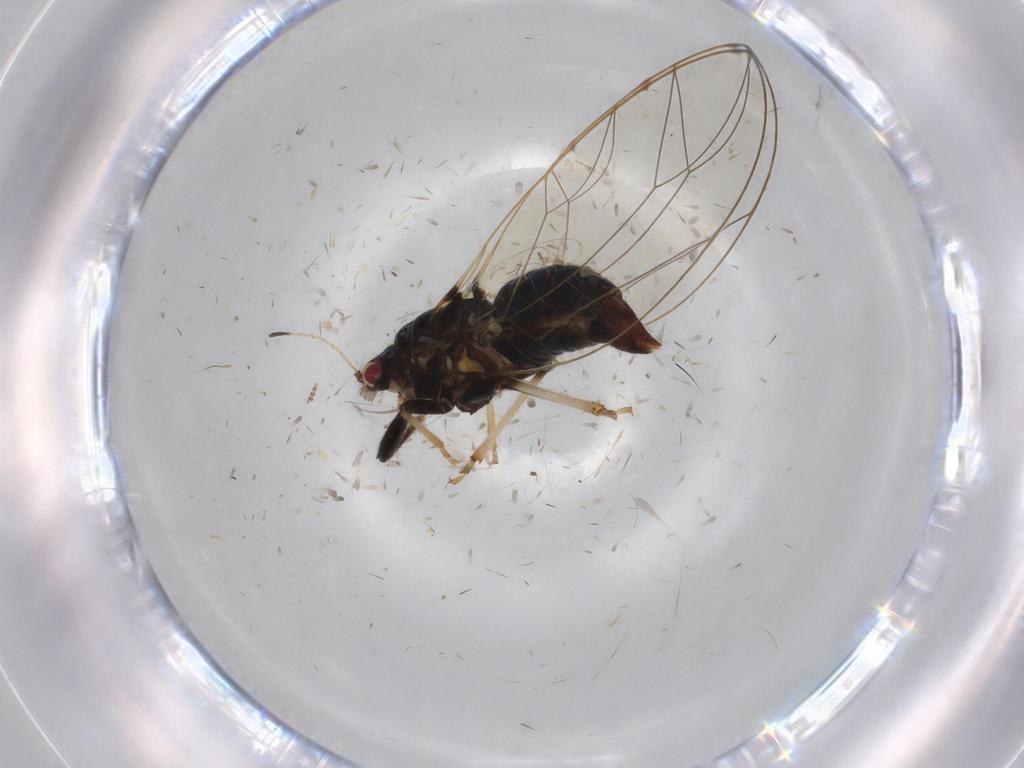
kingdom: Animalia
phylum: Arthropoda
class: Insecta
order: Hemiptera
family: Triozidae
